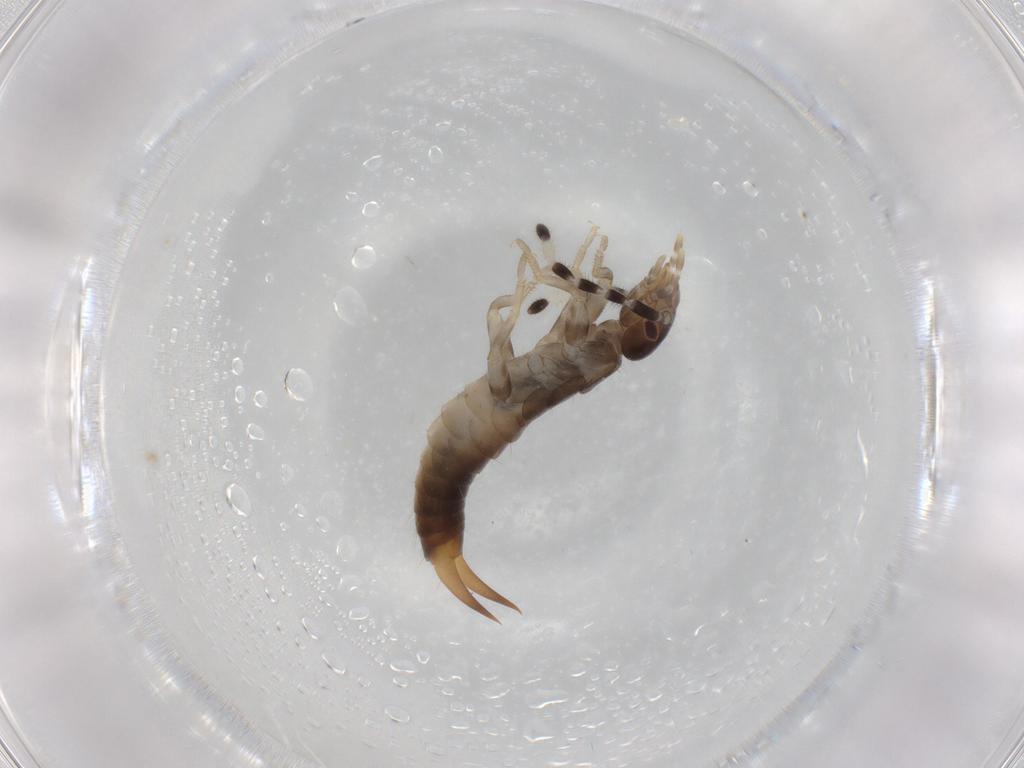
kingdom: Animalia
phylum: Arthropoda
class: Insecta
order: Dermaptera
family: Anisolabididae
